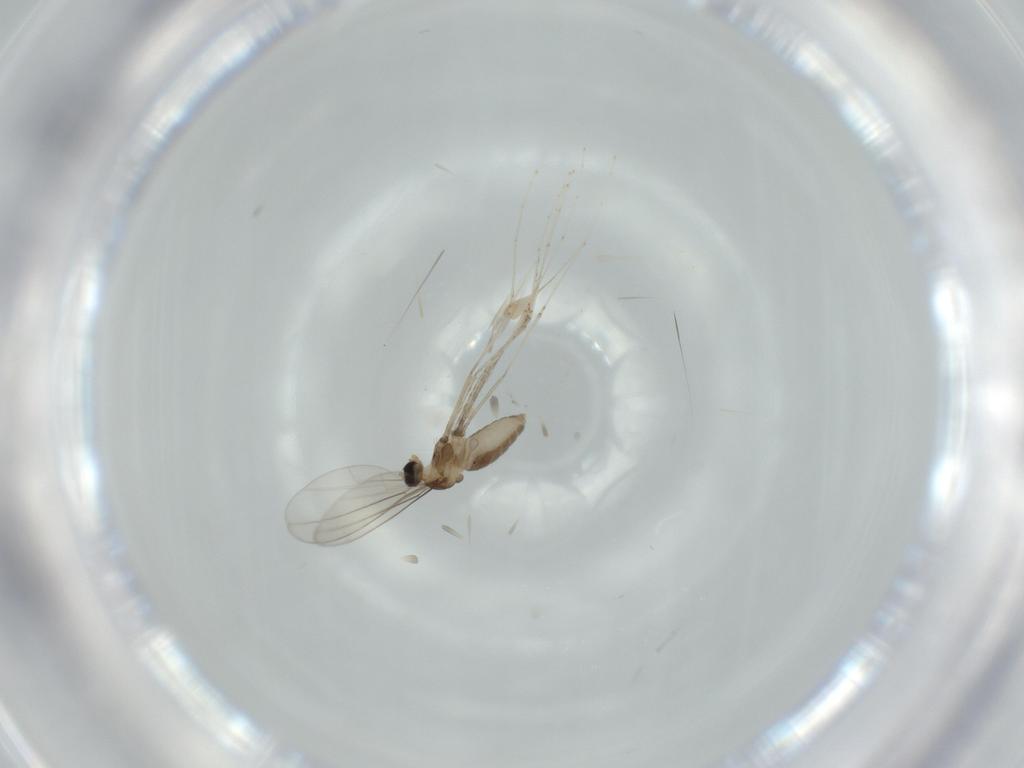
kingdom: Animalia
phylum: Arthropoda
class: Insecta
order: Diptera
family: Cecidomyiidae
